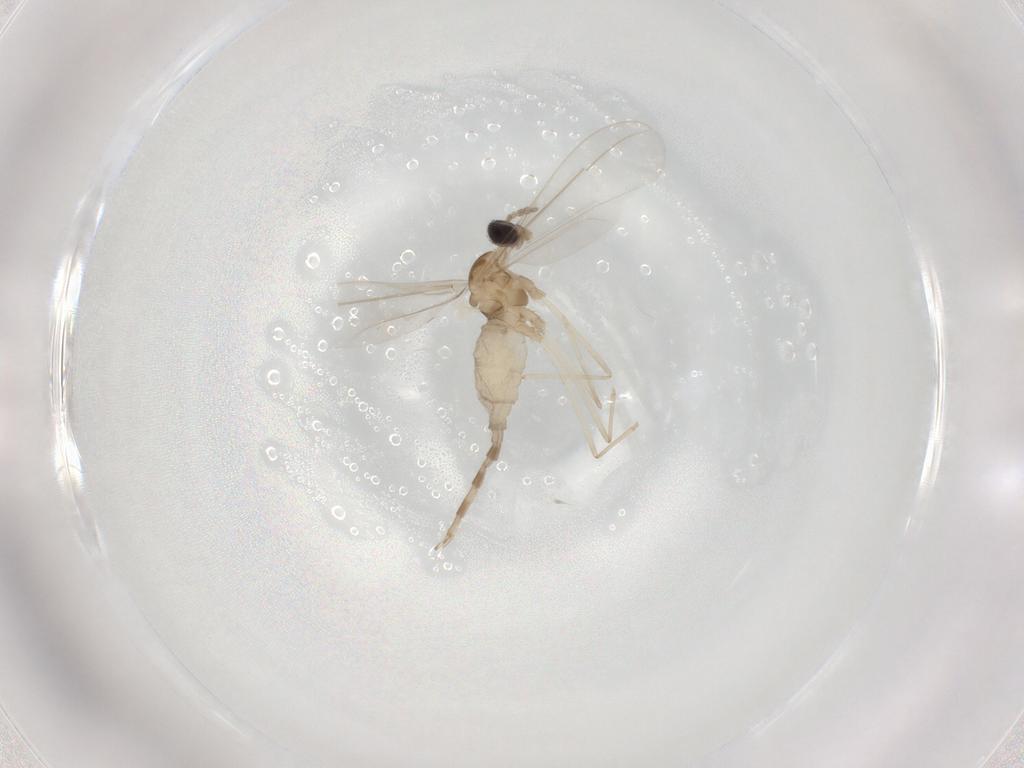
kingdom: Animalia
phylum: Arthropoda
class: Insecta
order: Diptera
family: Cecidomyiidae
